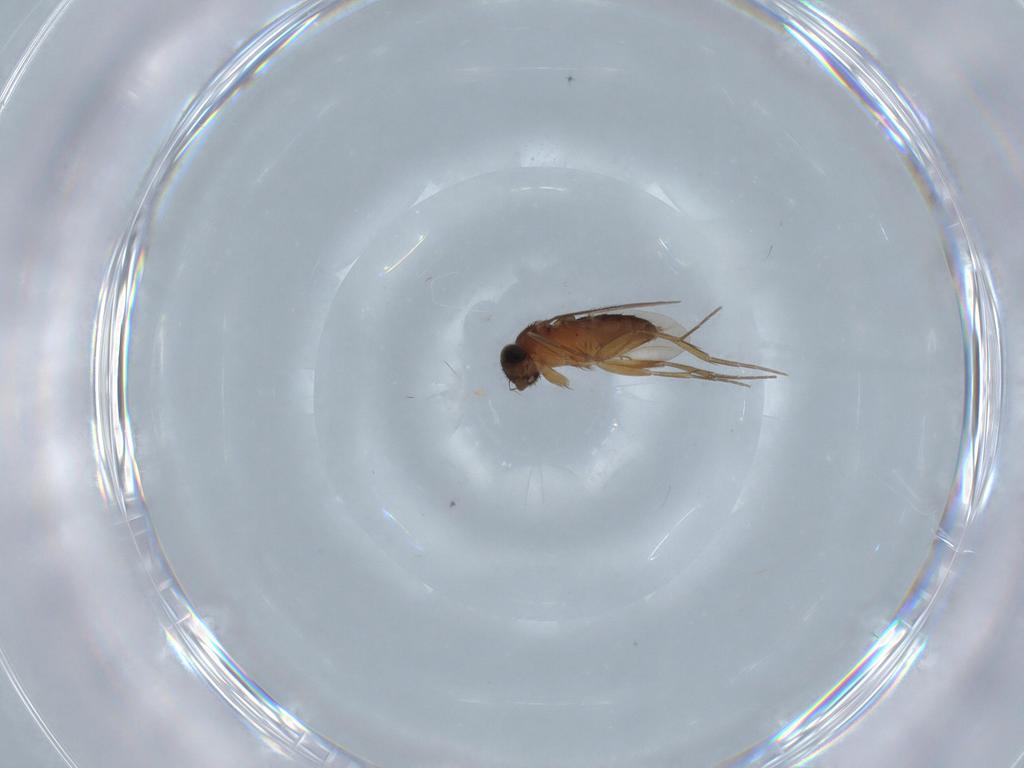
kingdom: Animalia
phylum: Arthropoda
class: Insecta
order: Diptera
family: Phoridae
